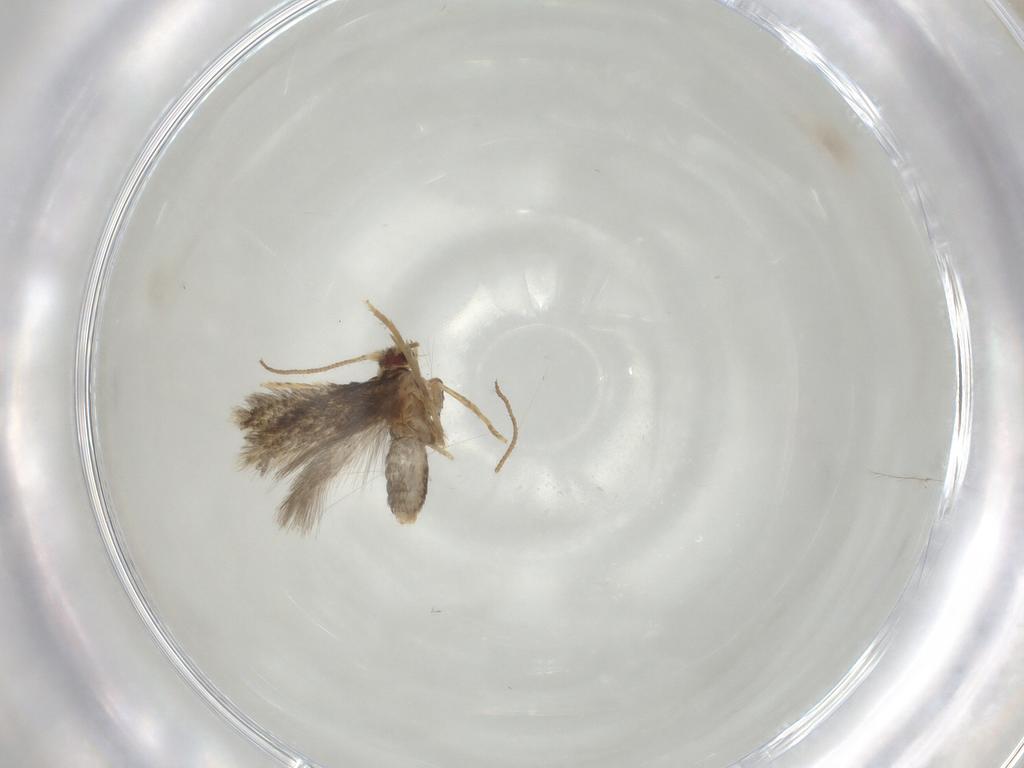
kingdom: Animalia
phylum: Arthropoda
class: Insecta
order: Lepidoptera
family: Nepticulidae
